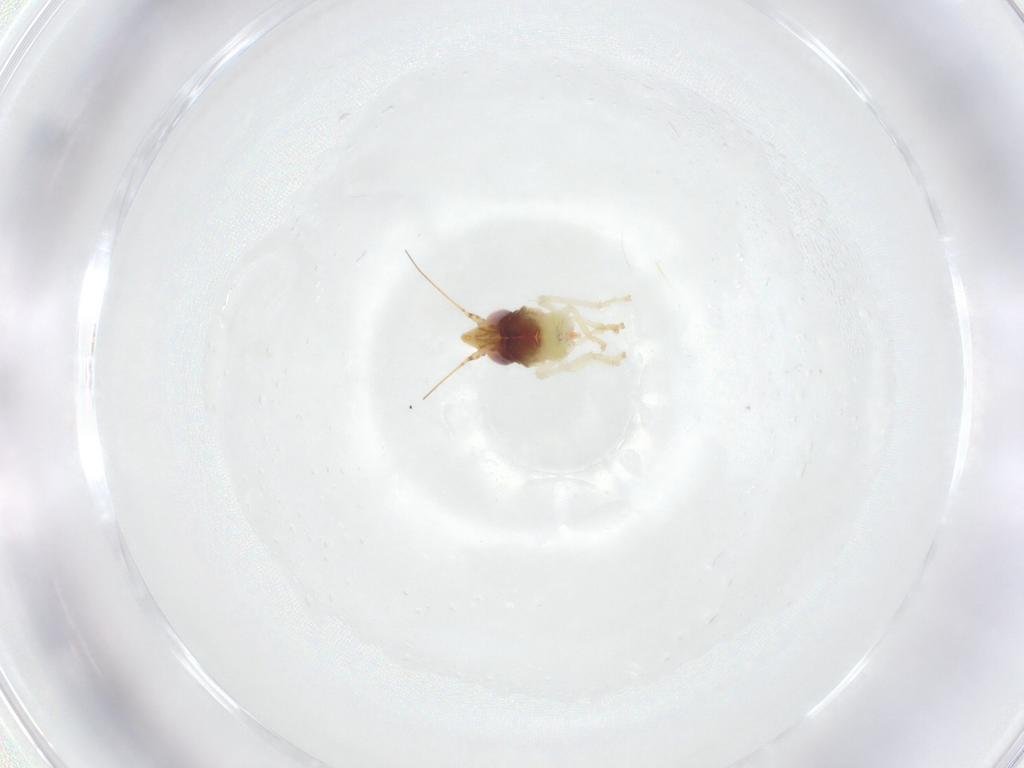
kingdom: Animalia
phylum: Arthropoda
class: Insecta
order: Hemiptera
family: Cicadellidae
